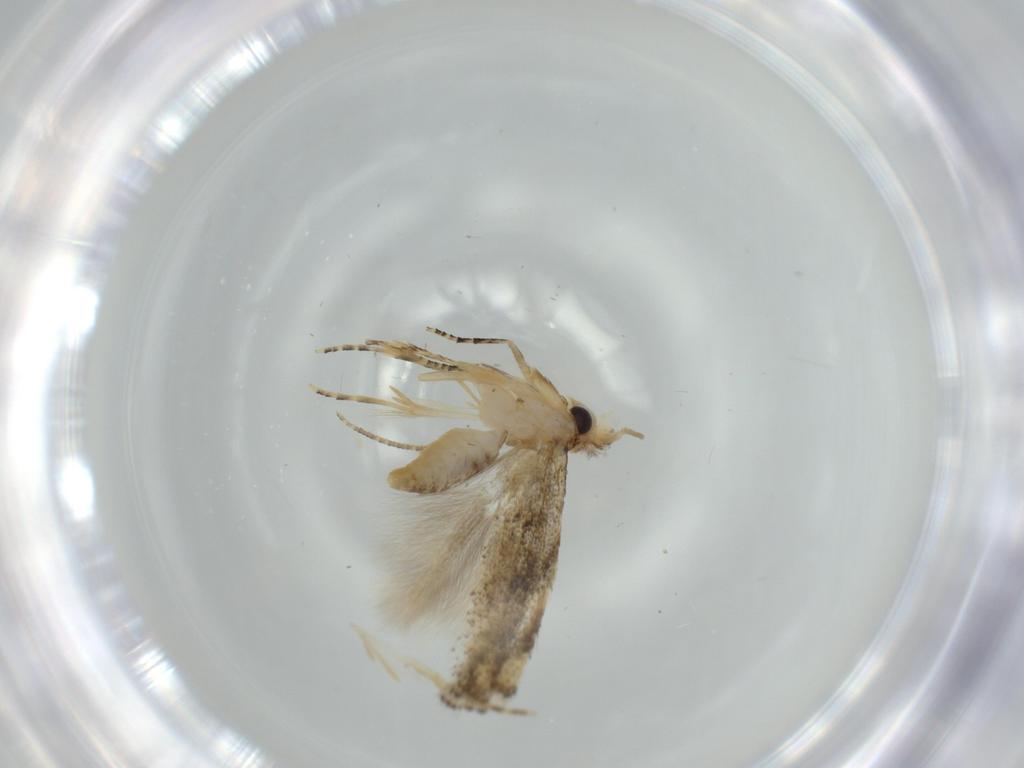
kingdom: Animalia
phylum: Arthropoda
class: Insecta
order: Lepidoptera
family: Bucculatricidae
